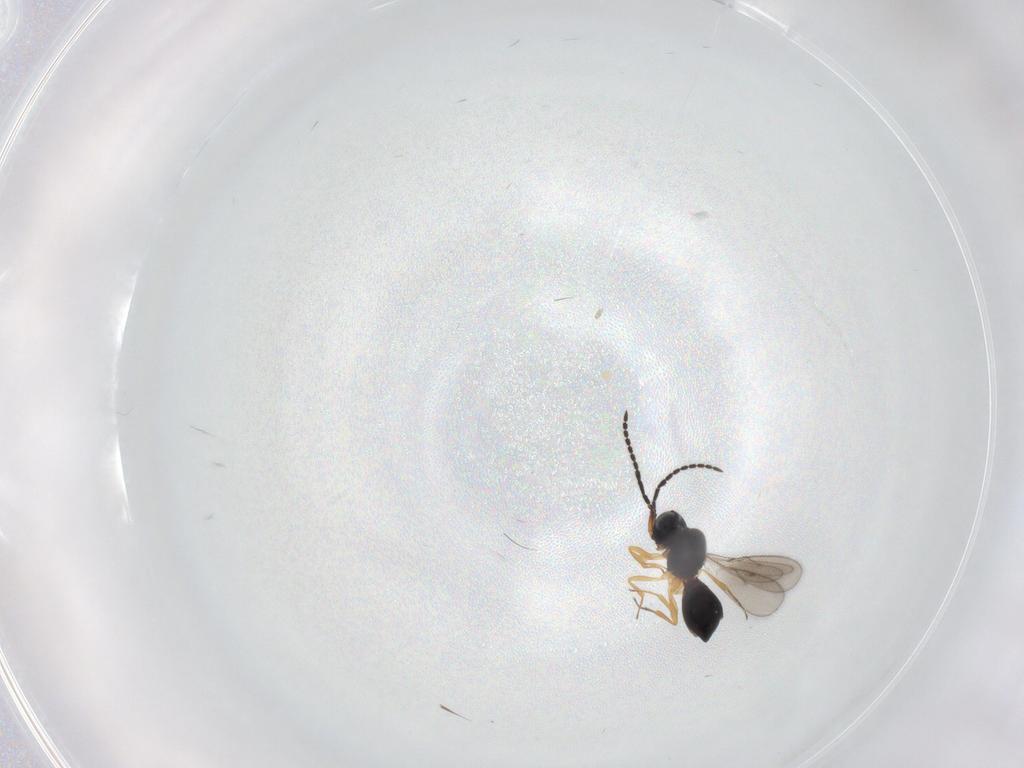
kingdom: Animalia
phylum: Arthropoda
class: Insecta
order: Hymenoptera
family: Scelionidae
